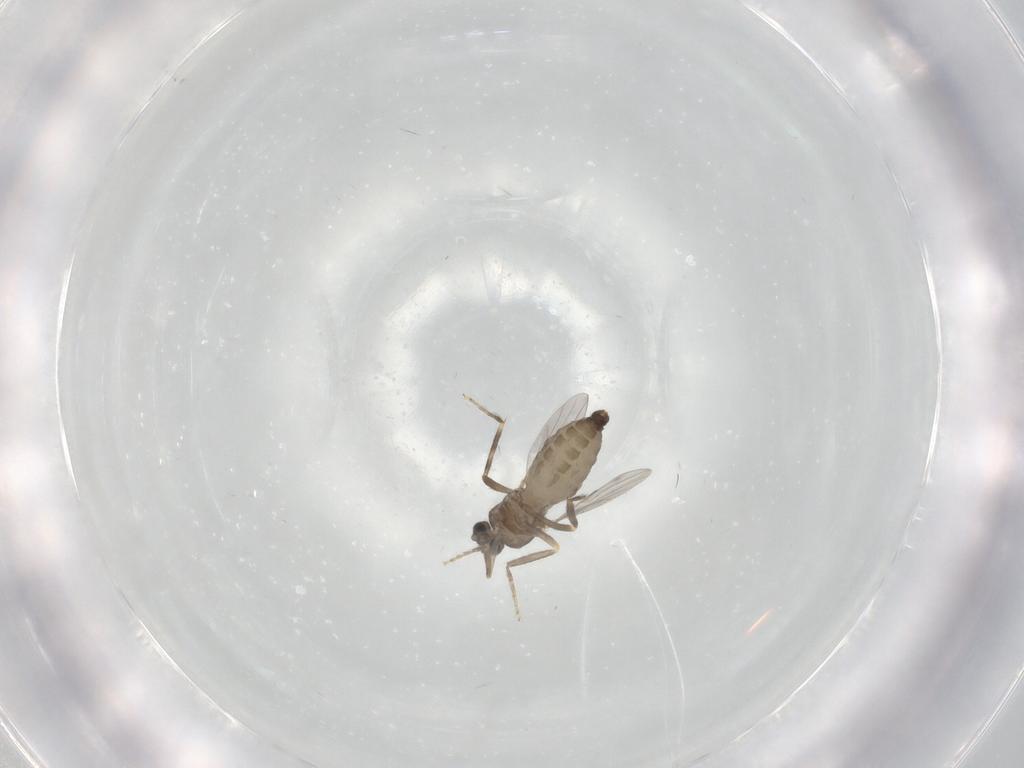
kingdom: Animalia
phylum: Arthropoda
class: Insecta
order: Diptera
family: Ceratopogonidae
